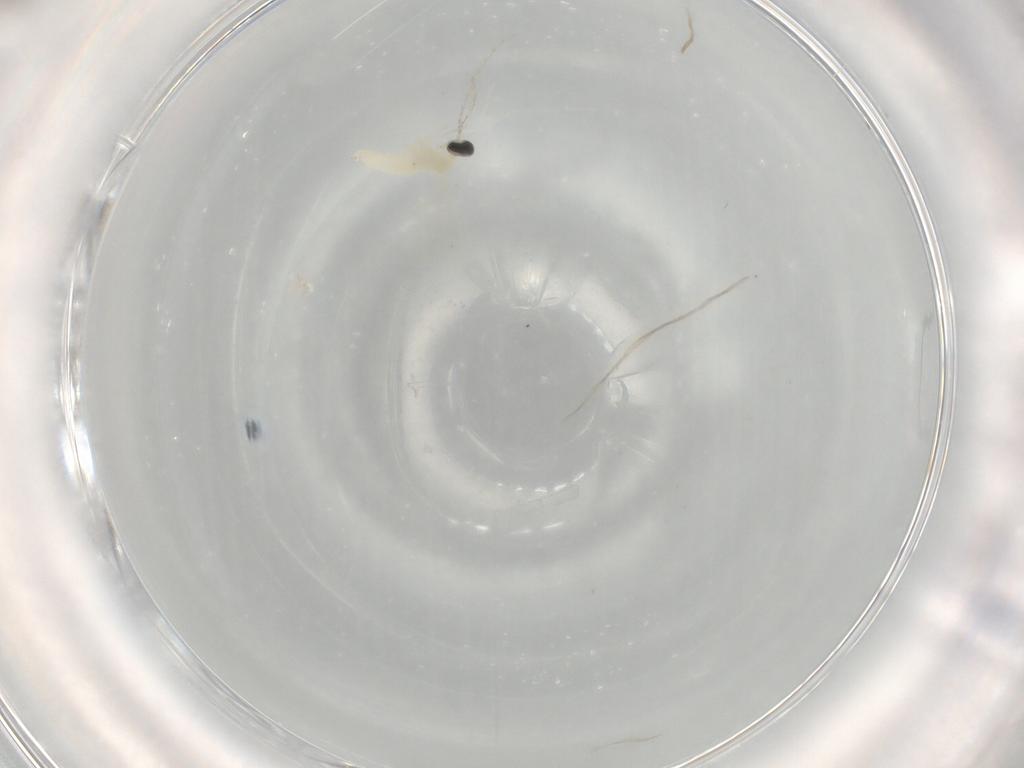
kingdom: Animalia
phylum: Arthropoda
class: Insecta
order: Diptera
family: Cecidomyiidae
